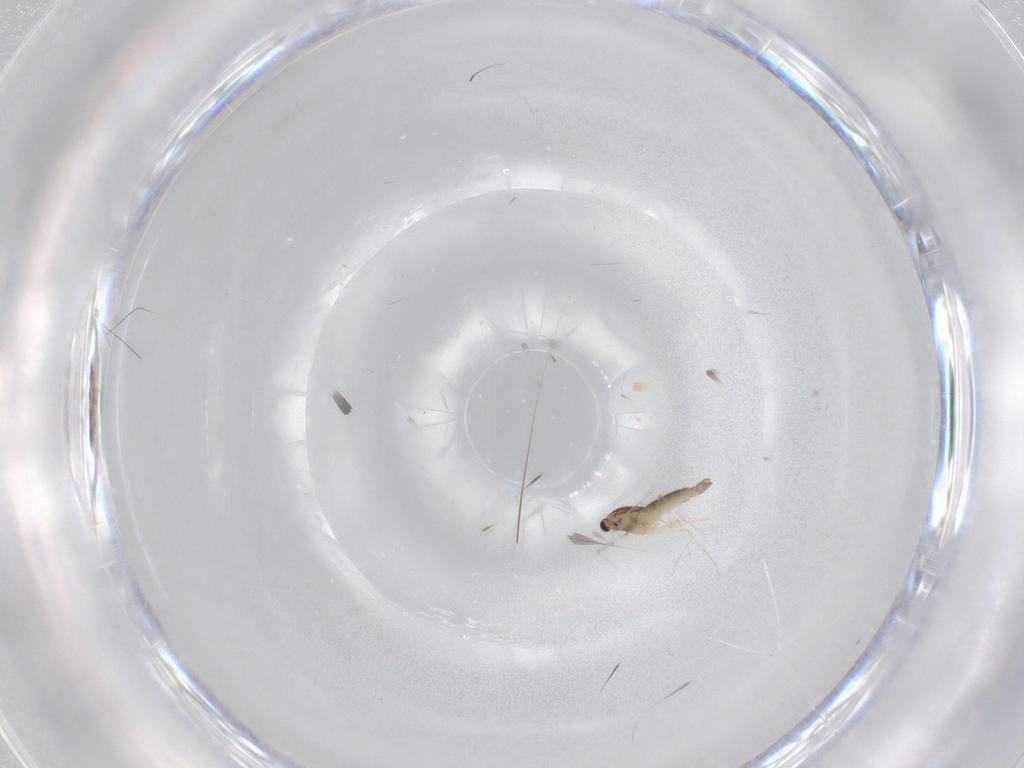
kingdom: Animalia
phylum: Arthropoda
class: Insecta
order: Diptera
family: Chironomidae
